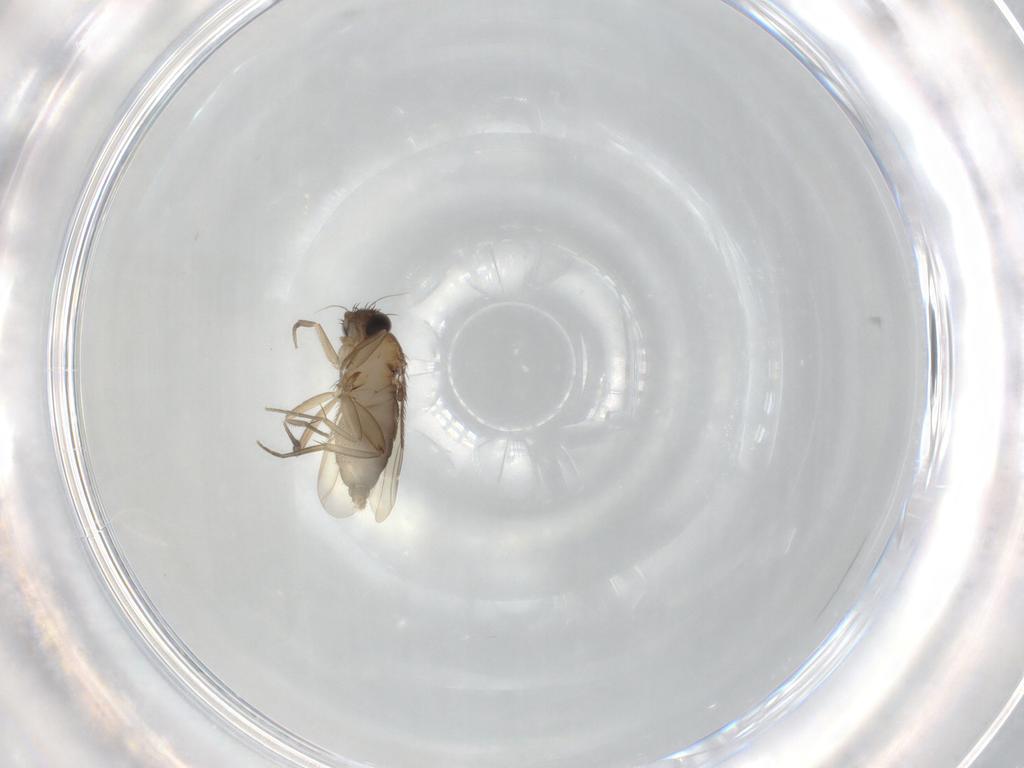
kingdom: Animalia
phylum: Arthropoda
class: Insecta
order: Diptera
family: Phoridae
